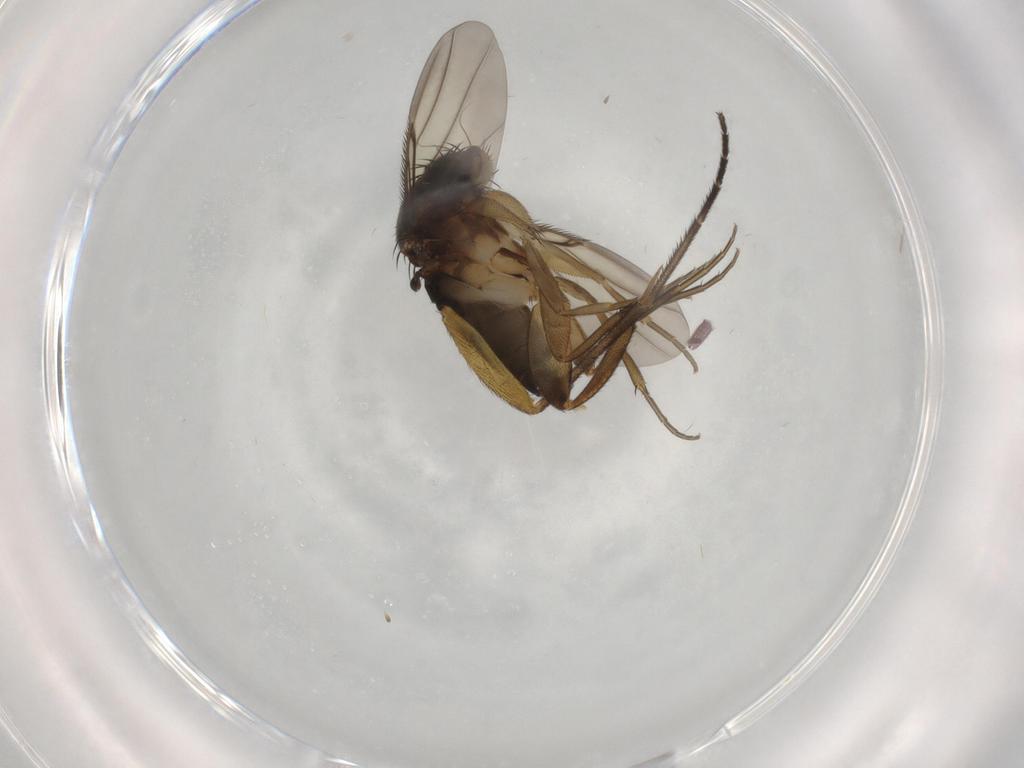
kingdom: Animalia
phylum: Arthropoda
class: Insecta
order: Diptera
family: Phoridae
